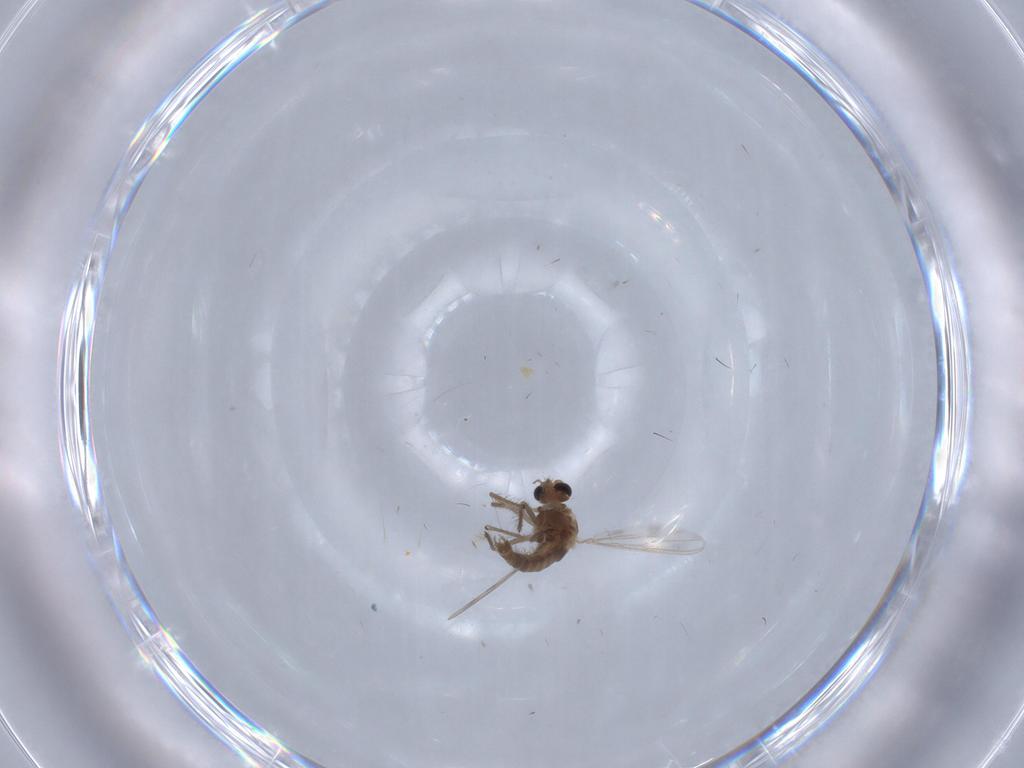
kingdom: Animalia
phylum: Arthropoda
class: Insecta
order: Diptera
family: Chironomidae
